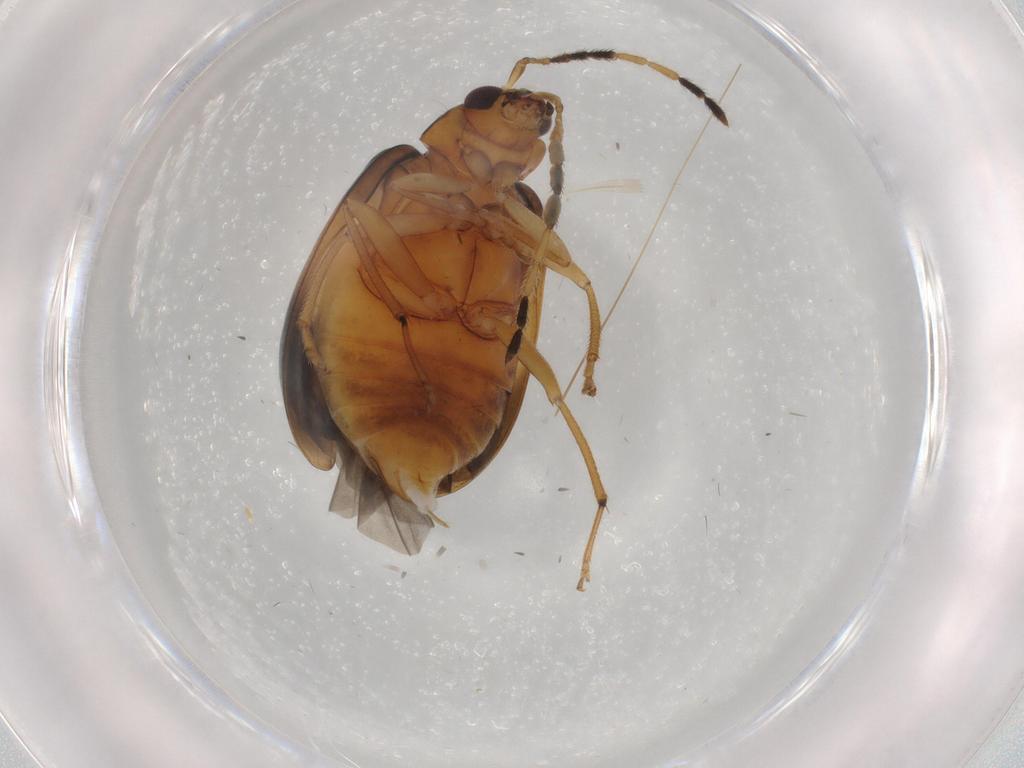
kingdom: Animalia
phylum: Arthropoda
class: Insecta
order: Coleoptera
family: Chrysomelidae
